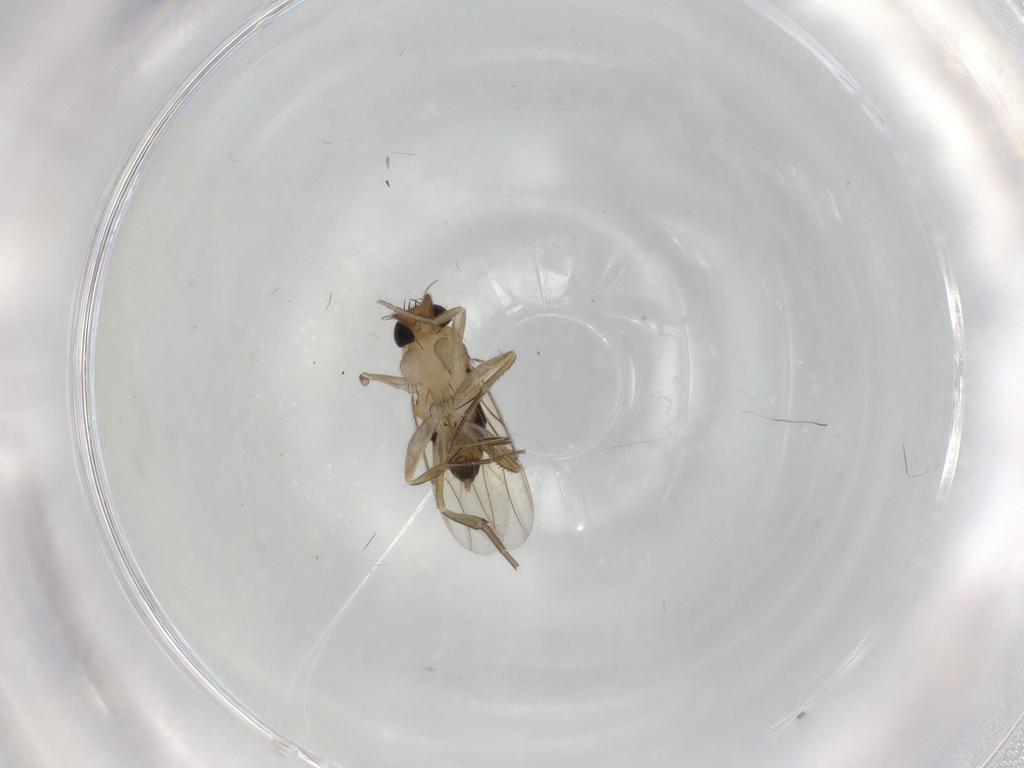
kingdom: Animalia
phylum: Arthropoda
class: Insecta
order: Diptera
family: Phoridae
